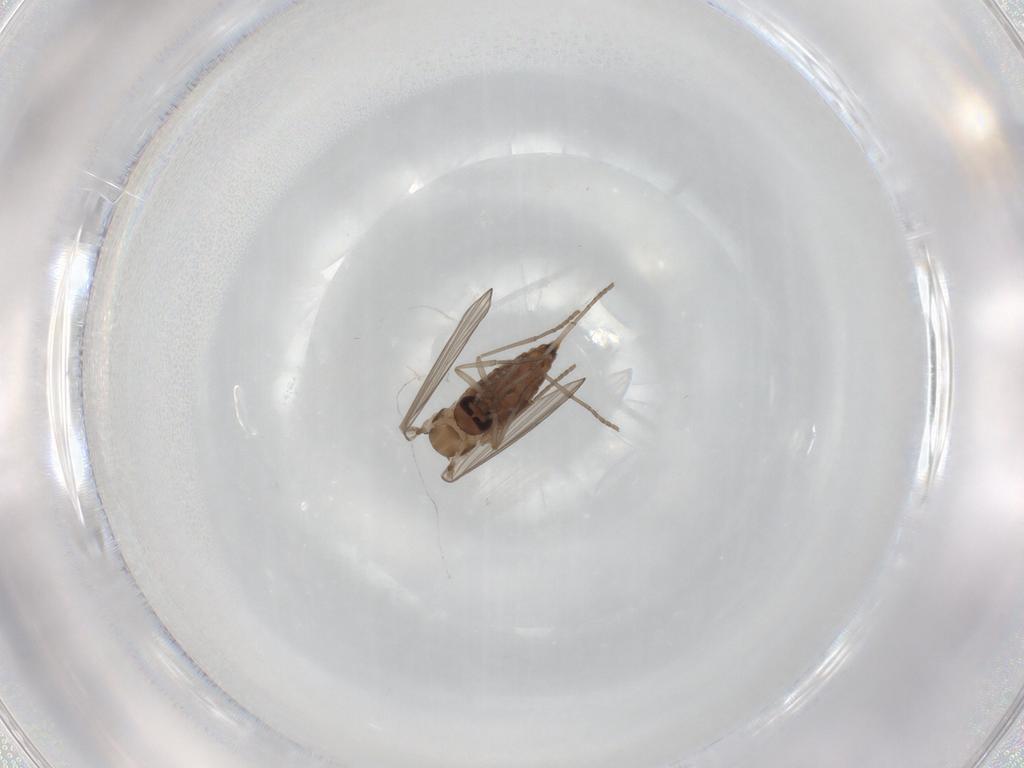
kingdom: Animalia
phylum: Arthropoda
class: Insecta
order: Diptera
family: Psychodidae
